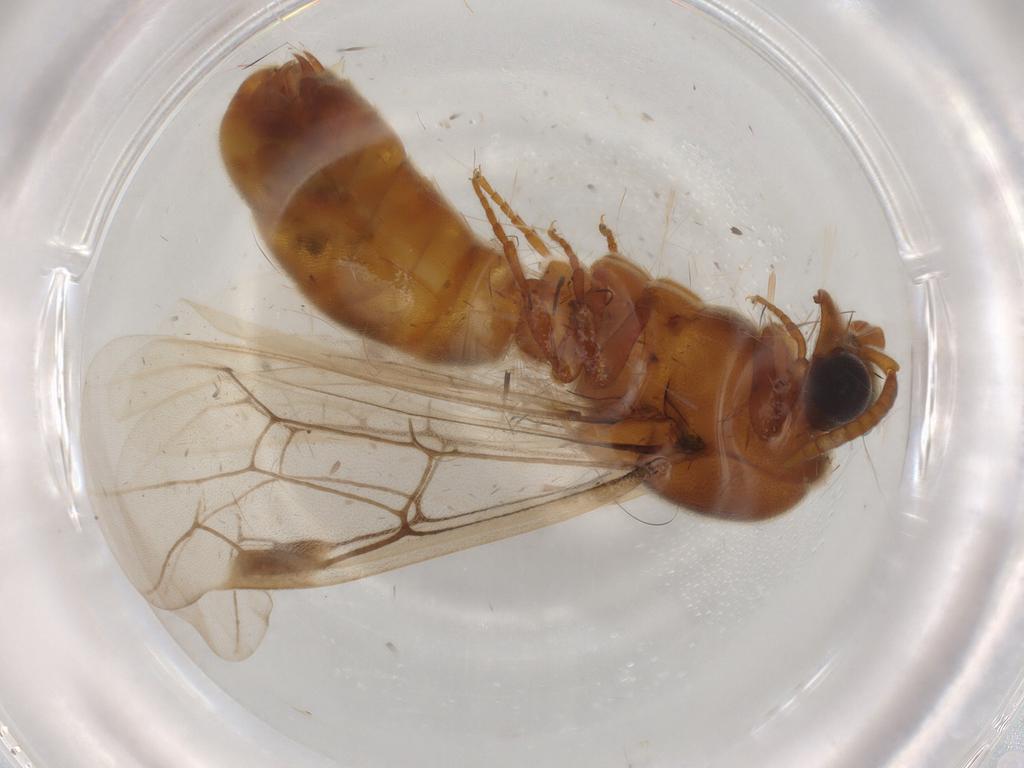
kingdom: Animalia
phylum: Arthropoda
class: Insecta
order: Hymenoptera
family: Formicidae
